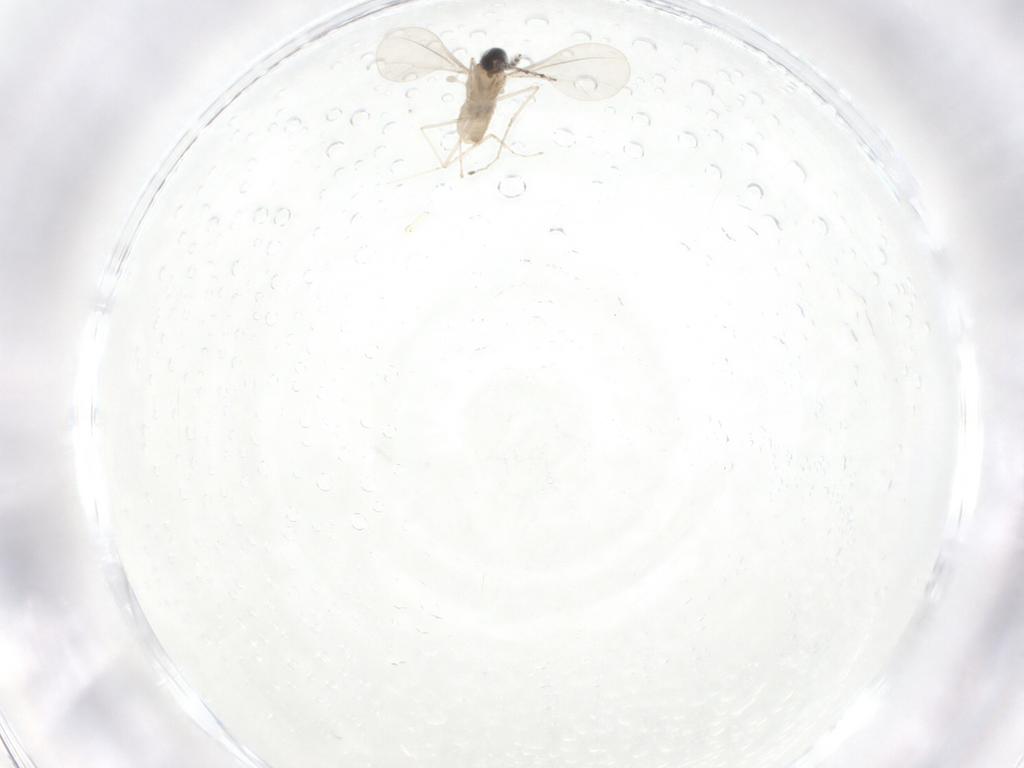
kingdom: Animalia
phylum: Arthropoda
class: Insecta
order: Diptera
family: Cecidomyiidae
